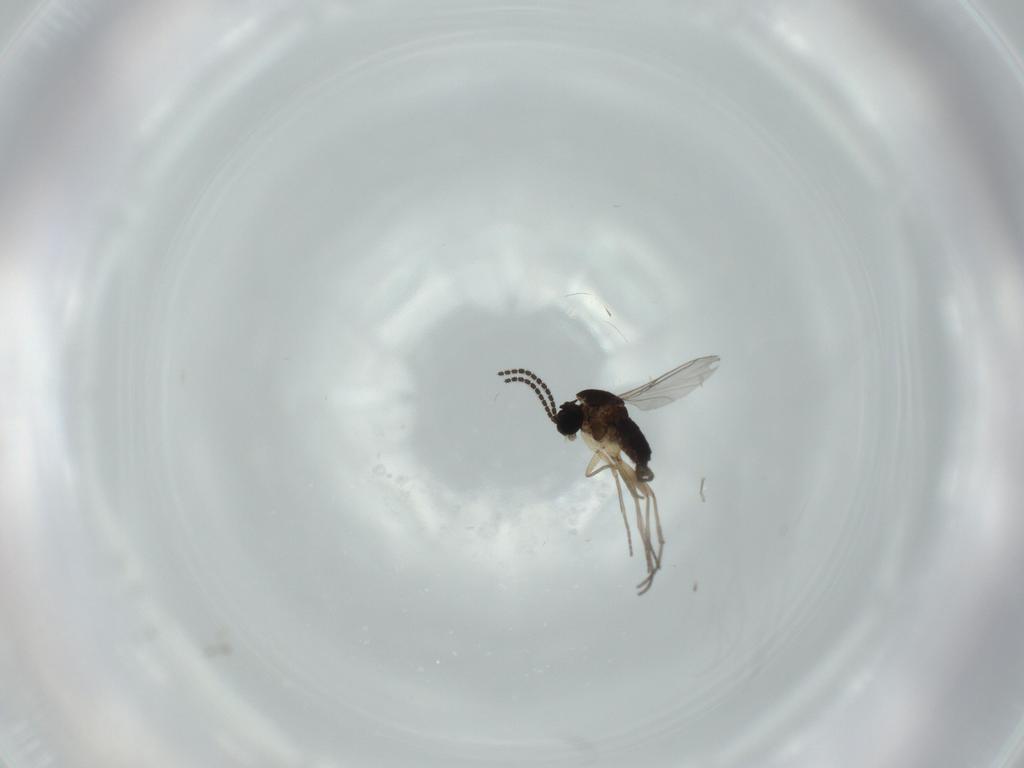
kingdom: Animalia
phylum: Arthropoda
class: Insecta
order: Diptera
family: Sciaridae
